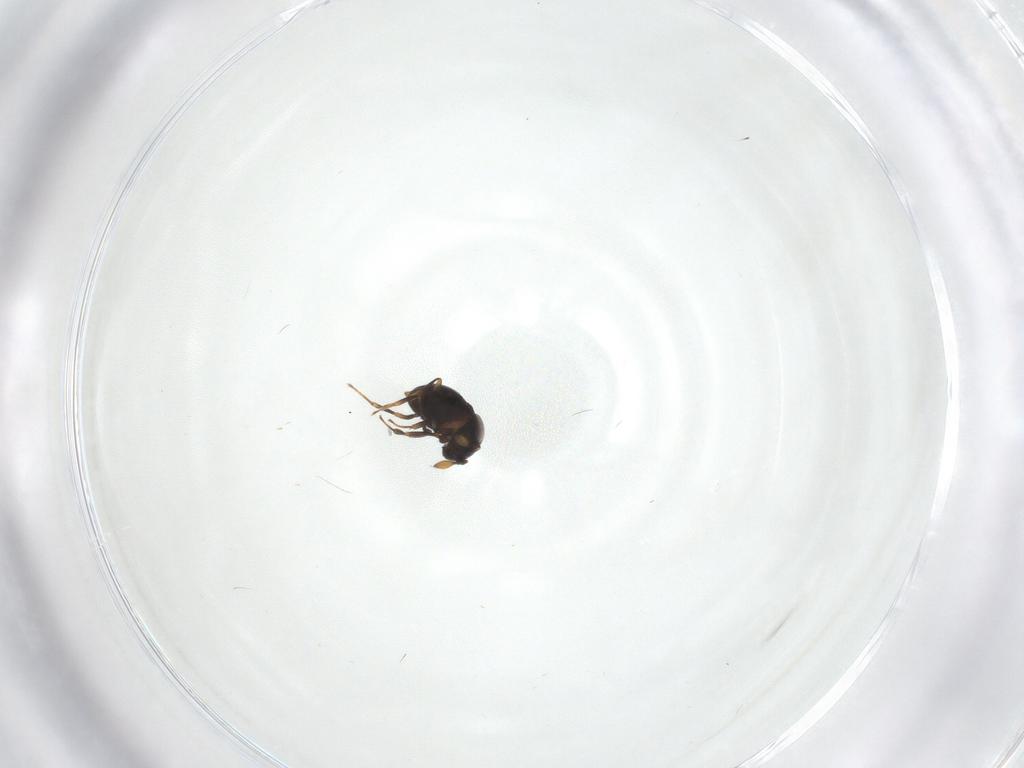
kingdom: Animalia
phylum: Arthropoda
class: Insecta
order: Hymenoptera
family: Scelionidae
